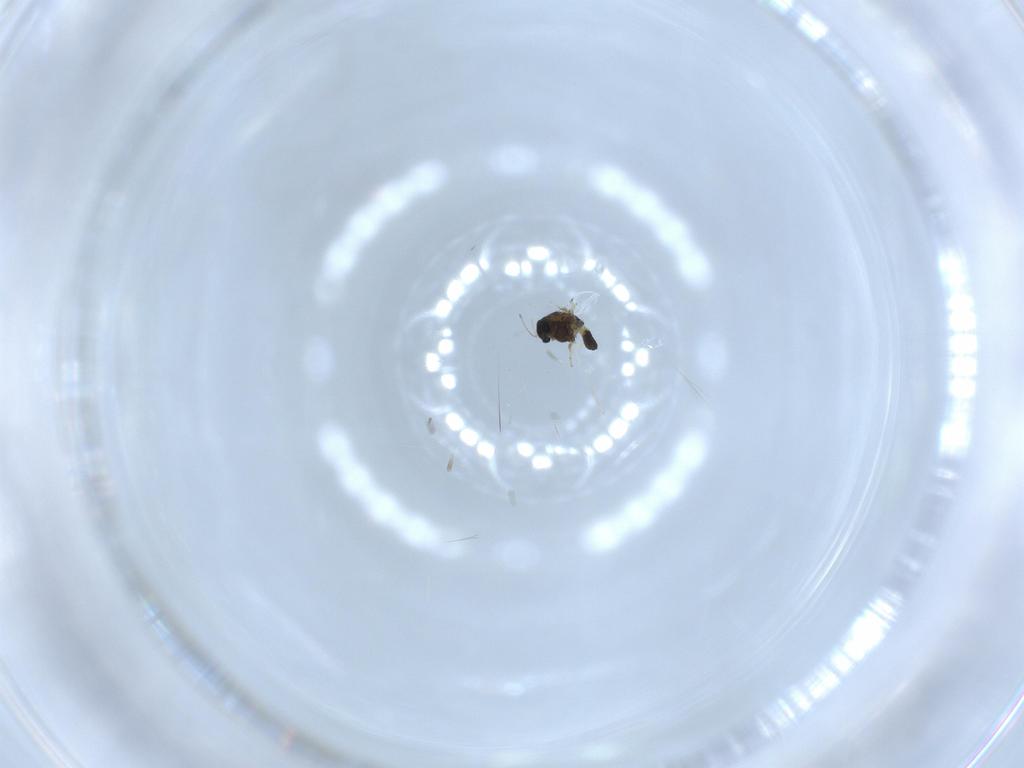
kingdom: Animalia
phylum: Arthropoda
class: Insecta
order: Diptera
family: Chironomidae
